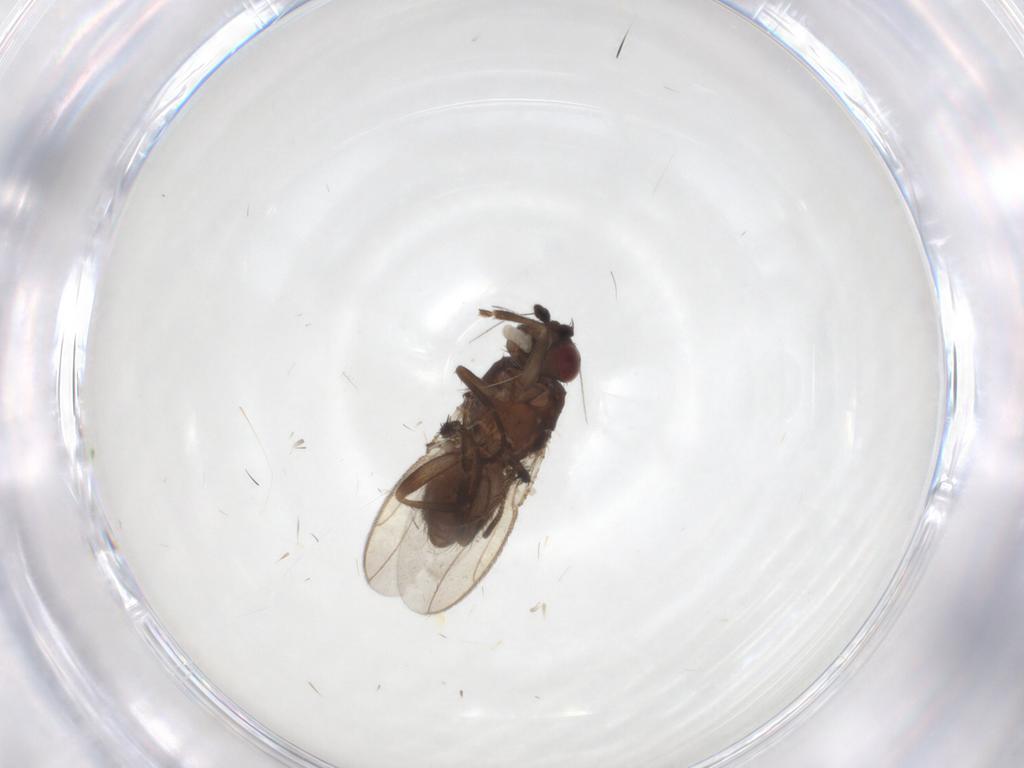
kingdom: Animalia
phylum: Arthropoda
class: Insecta
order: Diptera
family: Sphaeroceridae
